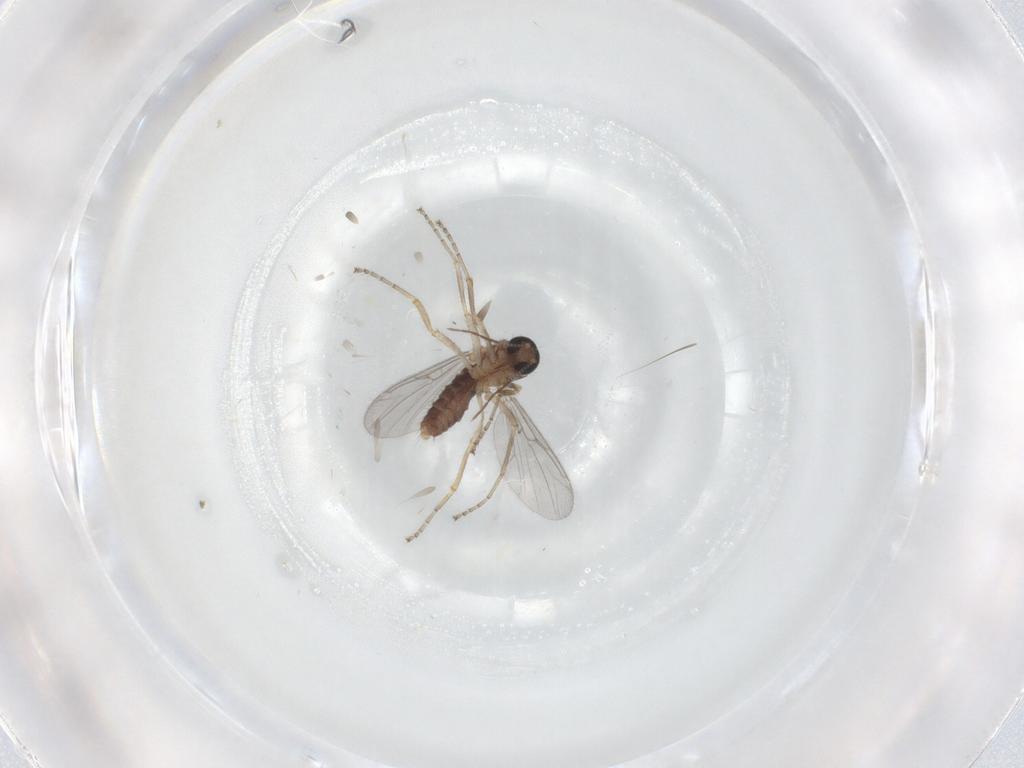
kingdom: Animalia
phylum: Arthropoda
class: Insecta
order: Diptera
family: Ceratopogonidae
